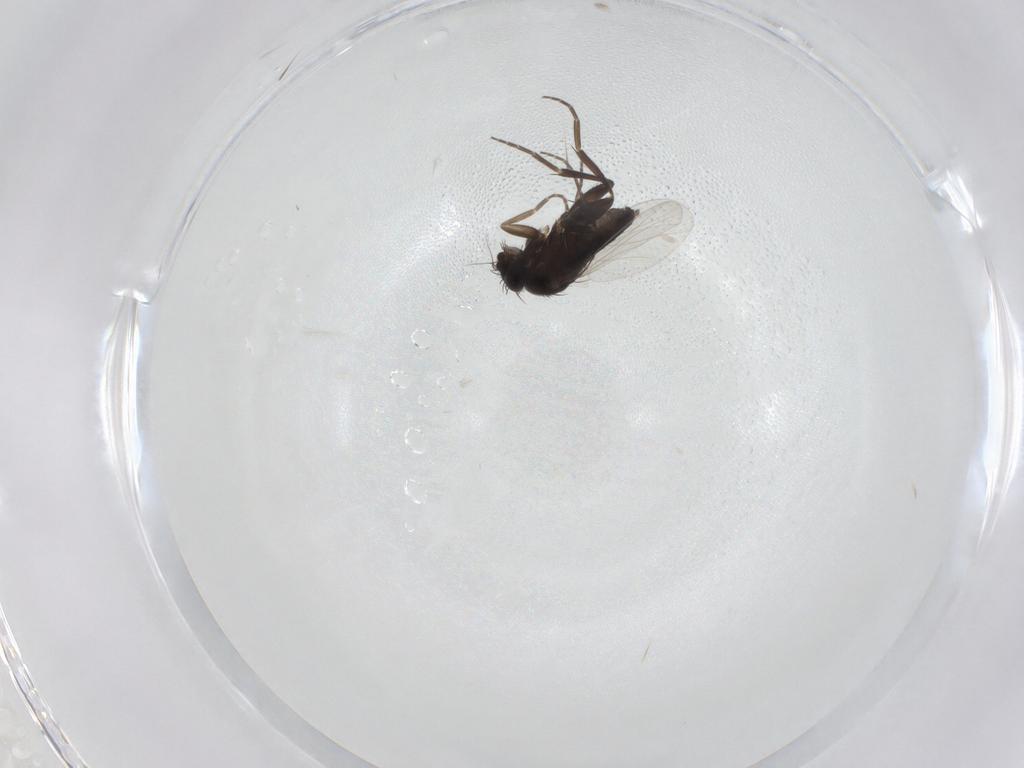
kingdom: Animalia
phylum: Arthropoda
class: Insecta
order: Diptera
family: Phoridae
